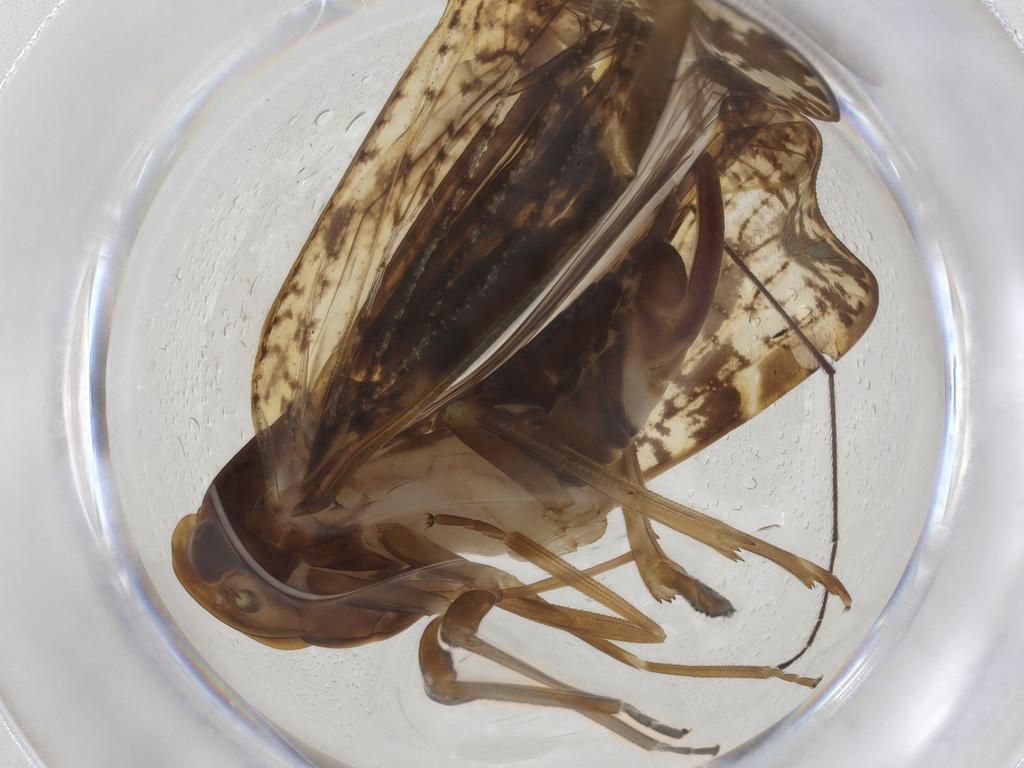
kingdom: Animalia
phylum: Arthropoda
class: Insecta
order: Hemiptera
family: Cixiidae
